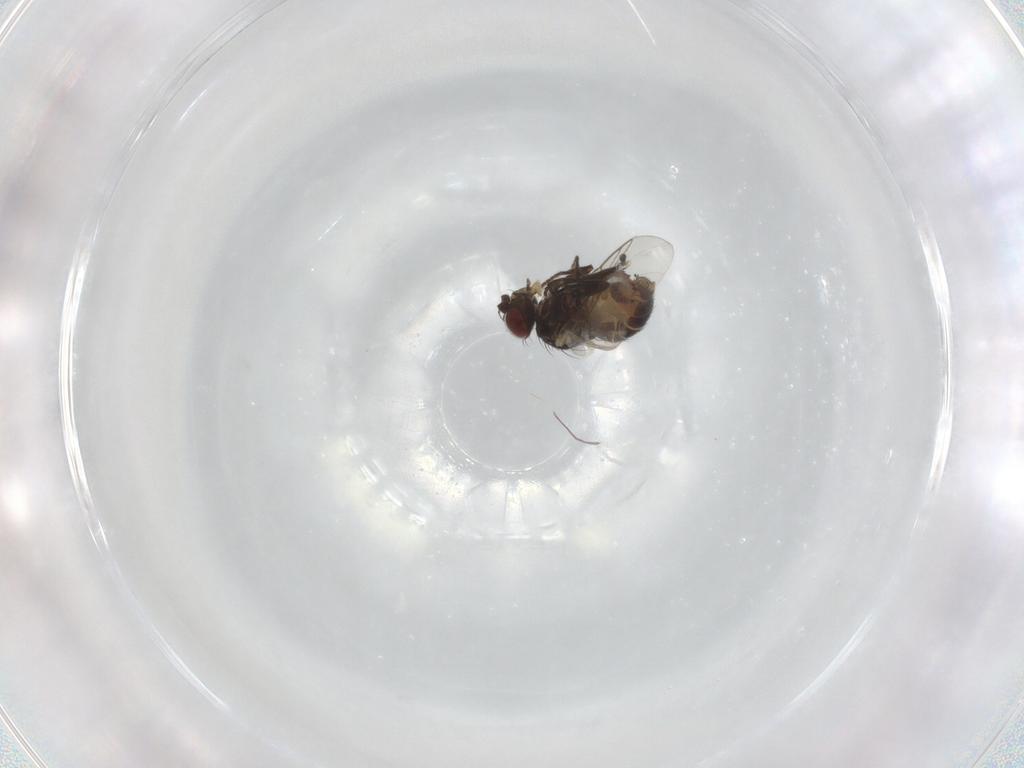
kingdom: Animalia
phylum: Arthropoda
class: Insecta
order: Diptera
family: Agromyzidae
